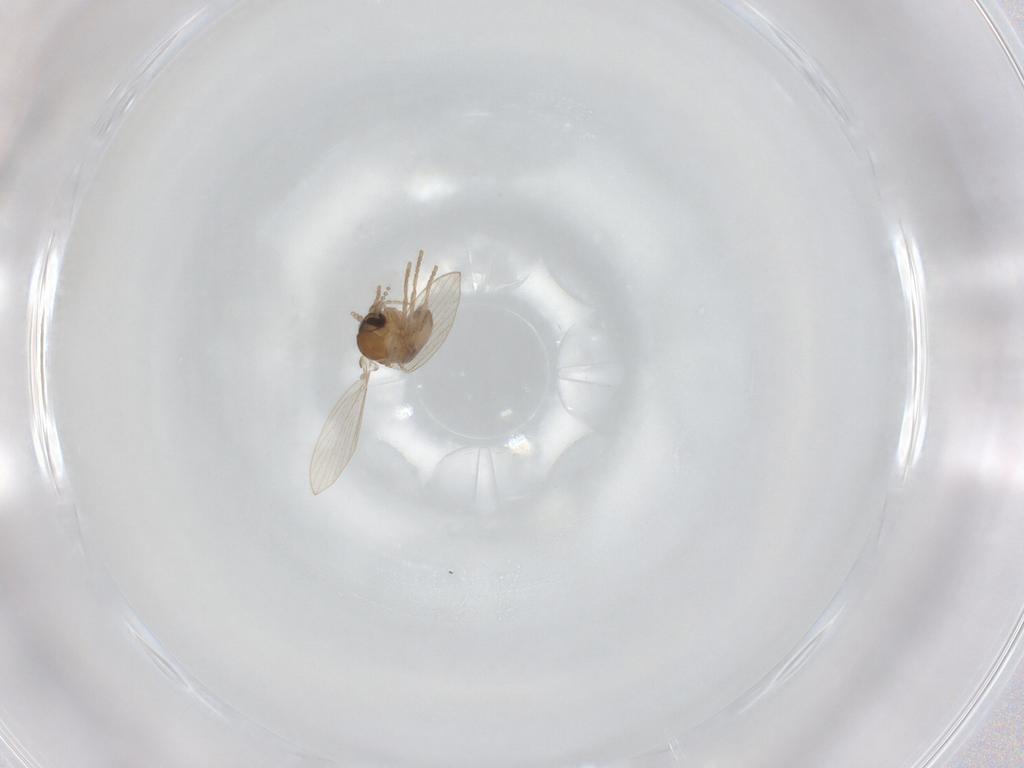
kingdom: Animalia
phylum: Arthropoda
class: Insecta
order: Diptera
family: Psychodidae
